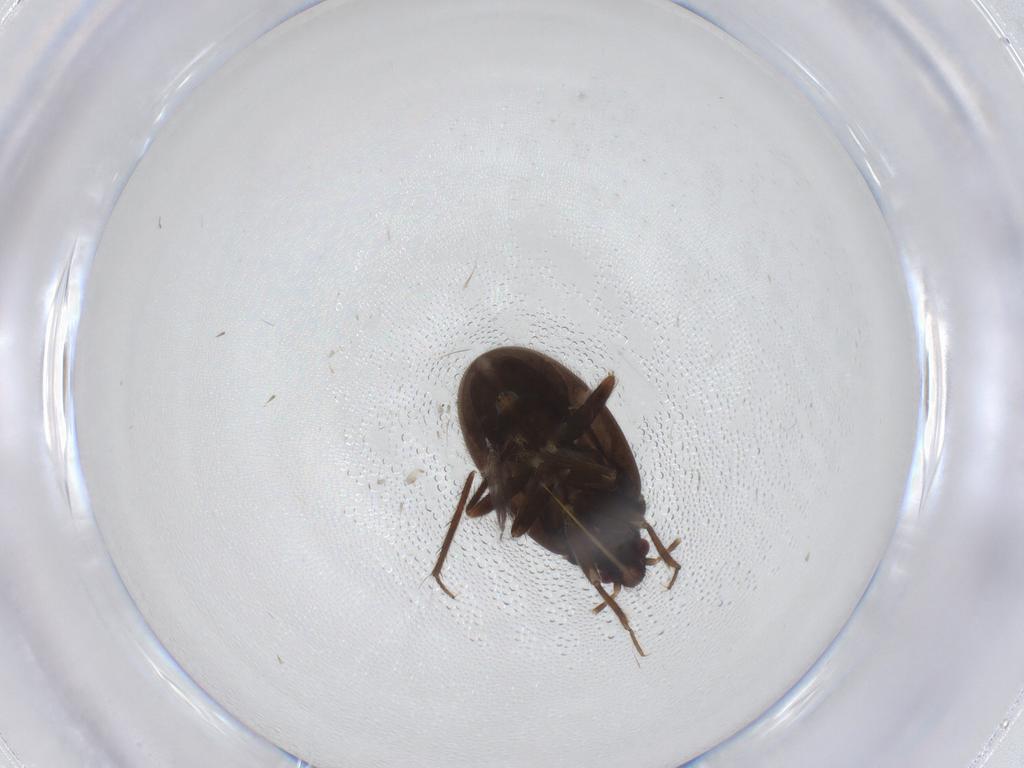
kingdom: Animalia
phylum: Arthropoda
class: Insecta
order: Hemiptera
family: Ceratocombidae
